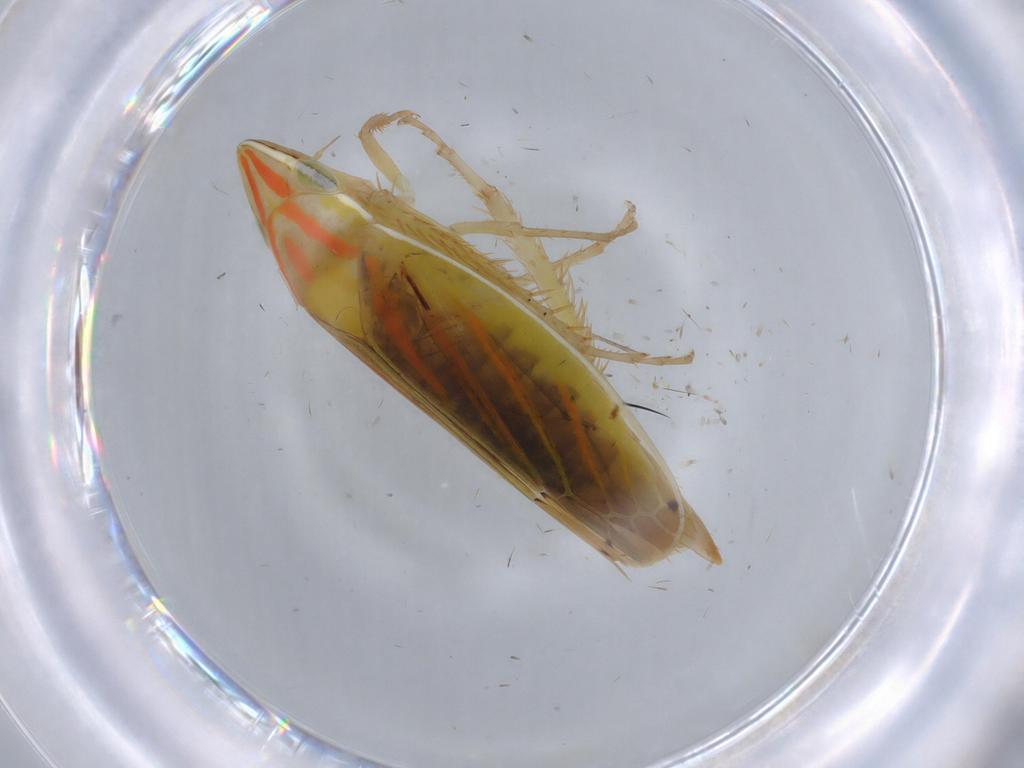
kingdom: Animalia
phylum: Arthropoda
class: Insecta
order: Hemiptera
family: Cicadellidae
